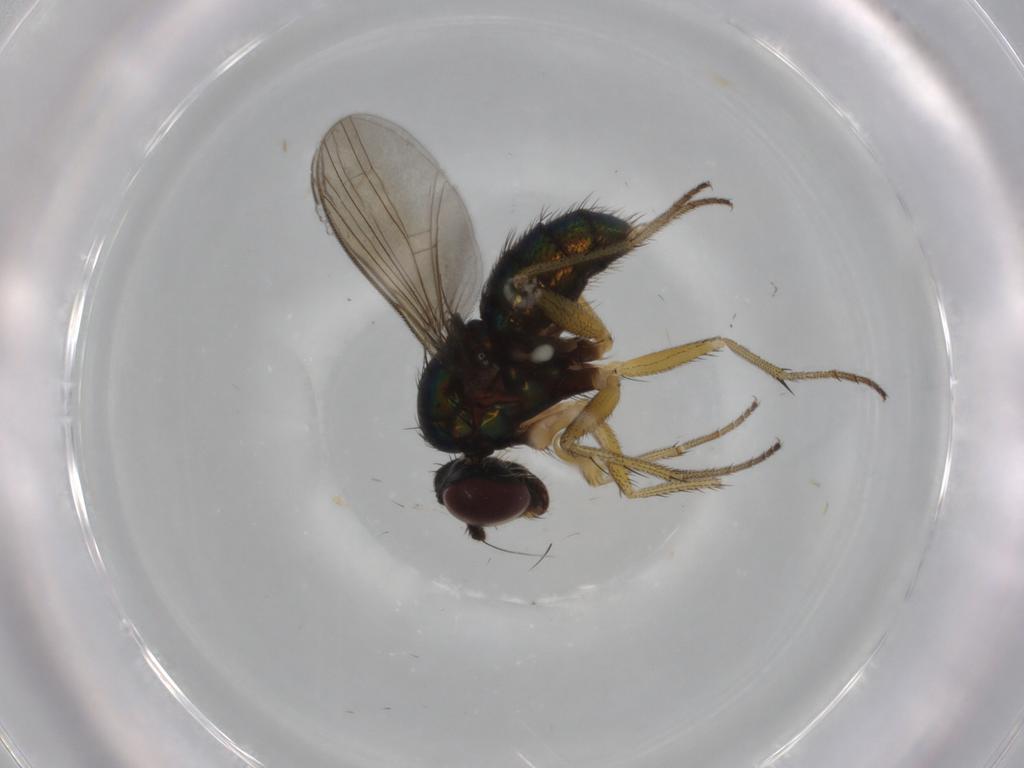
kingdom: Animalia
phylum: Arthropoda
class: Insecta
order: Diptera
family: Dolichopodidae
